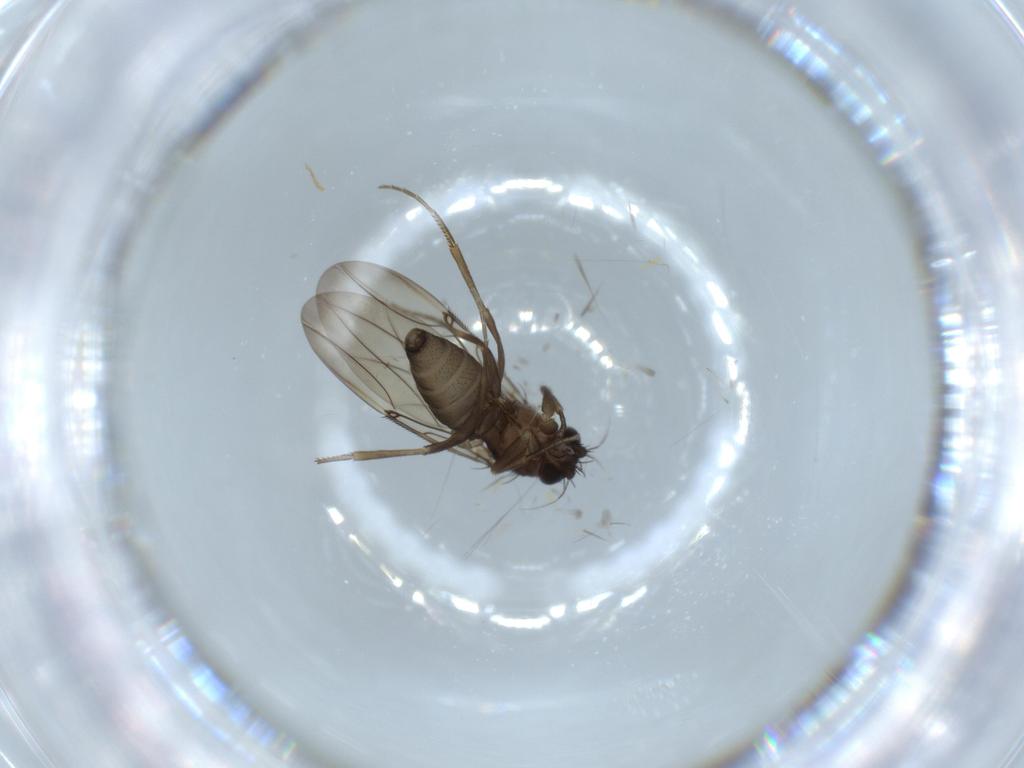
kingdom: Animalia
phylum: Arthropoda
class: Insecta
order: Diptera
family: Phoridae
